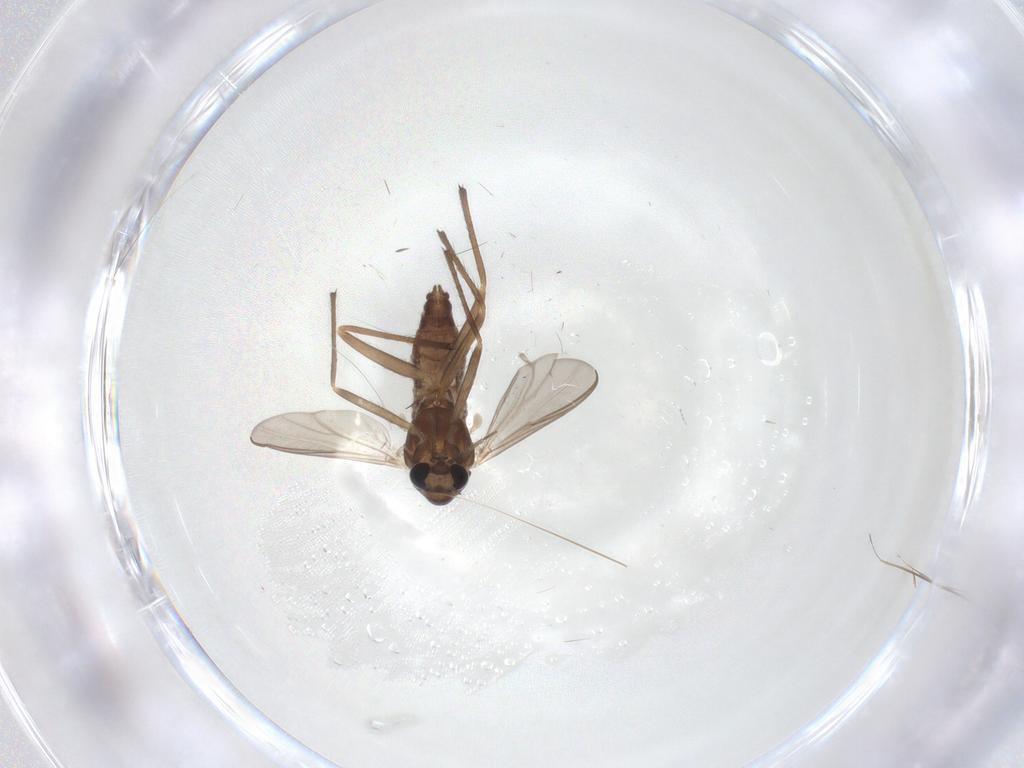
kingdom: Animalia
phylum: Arthropoda
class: Insecta
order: Diptera
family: Chironomidae
